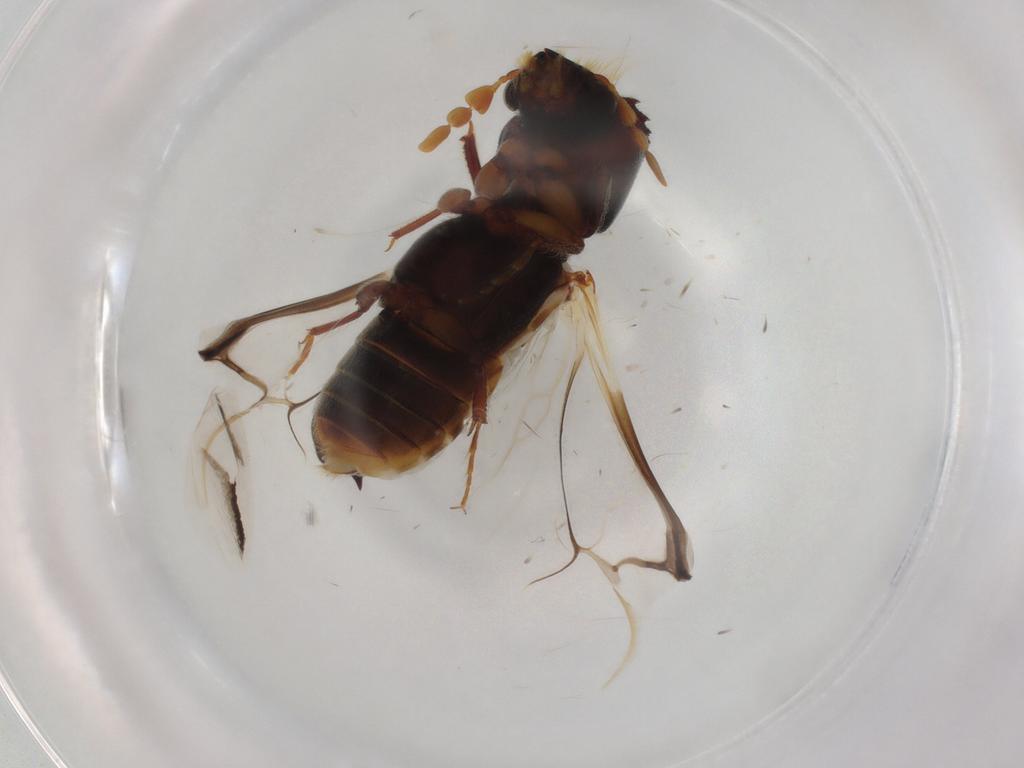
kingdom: Animalia
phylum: Arthropoda
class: Insecta
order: Coleoptera
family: Bostrichidae
